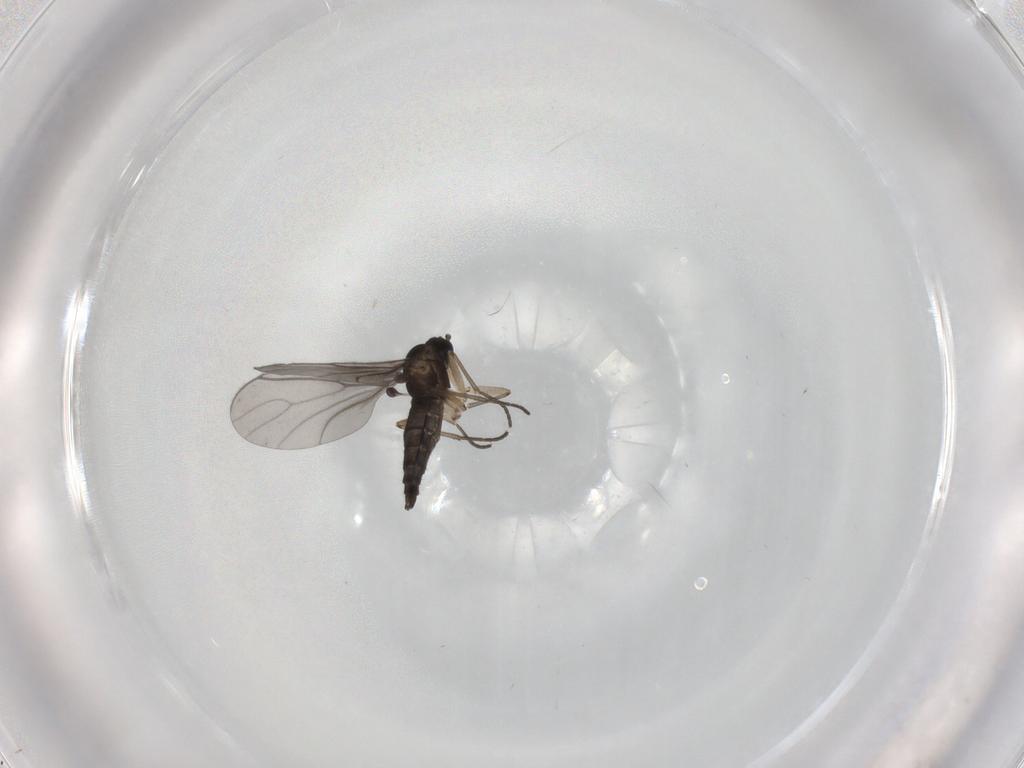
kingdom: Animalia
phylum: Arthropoda
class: Insecta
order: Diptera
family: Sciaridae
